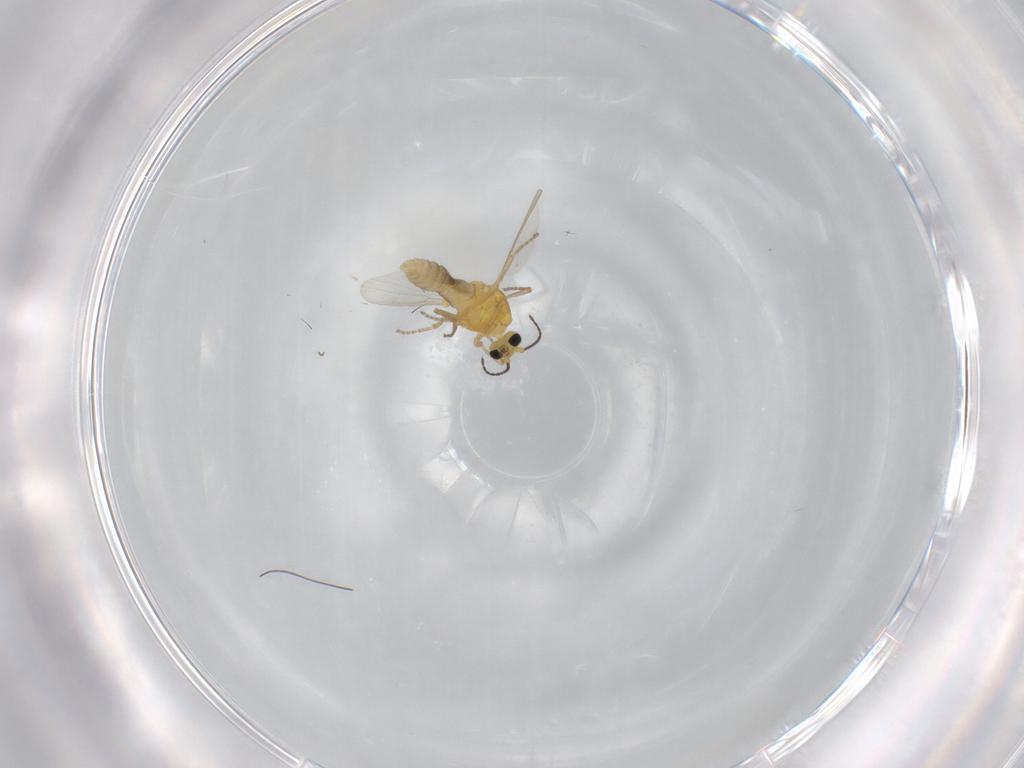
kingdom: Animalia
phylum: Arthropoda
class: Insecta
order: Diptera
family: Ceratopogonidae
